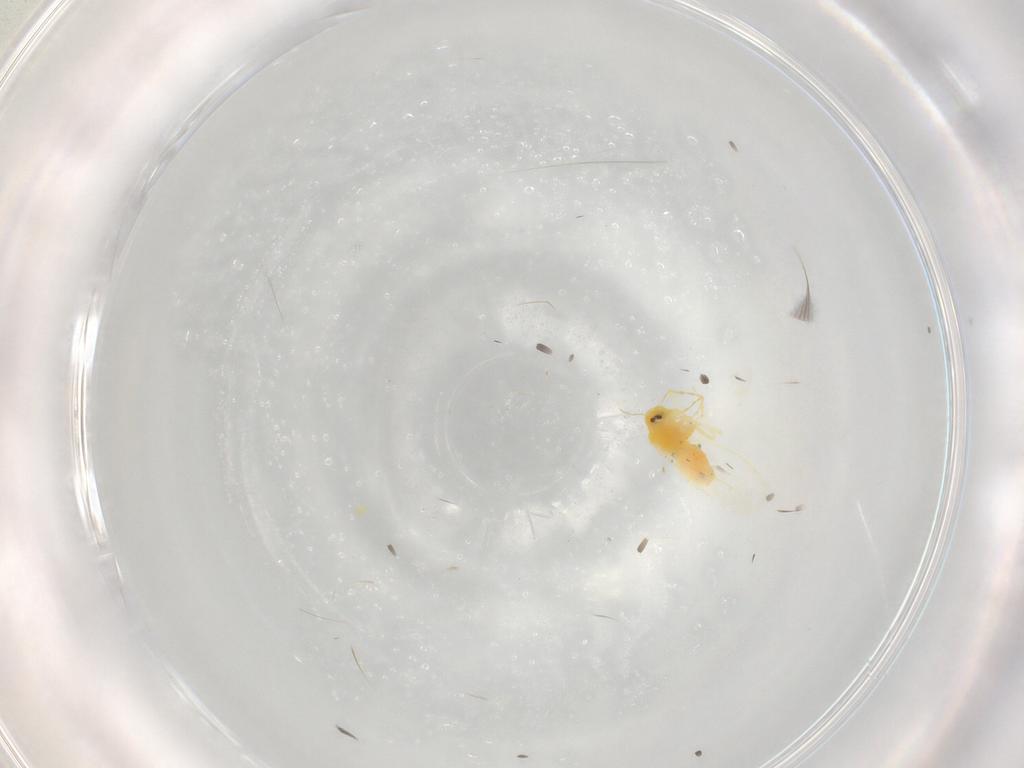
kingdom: Animalia
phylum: Arthropoda
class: Insecta
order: Hemiptera
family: Aleyrodidae
